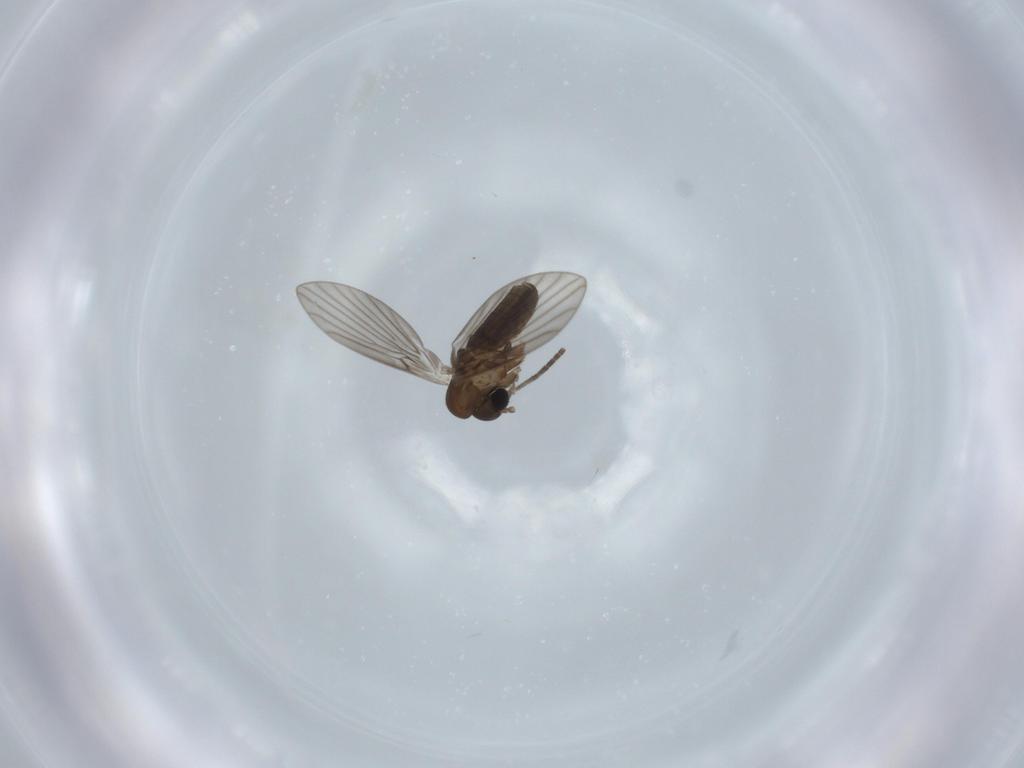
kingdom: Animalia
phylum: Arthropoda
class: Insecta
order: Diptera
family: Psychodidae
